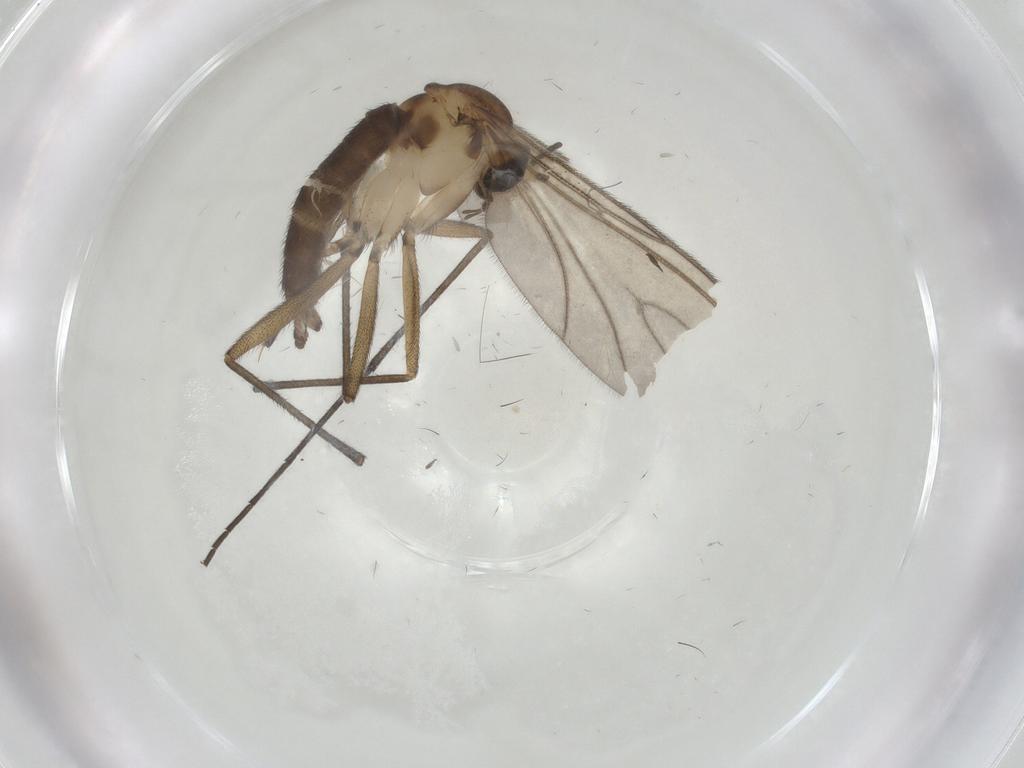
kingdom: Animalia
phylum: Arthropoda
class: Insecta
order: Diptera
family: Sciaridae
